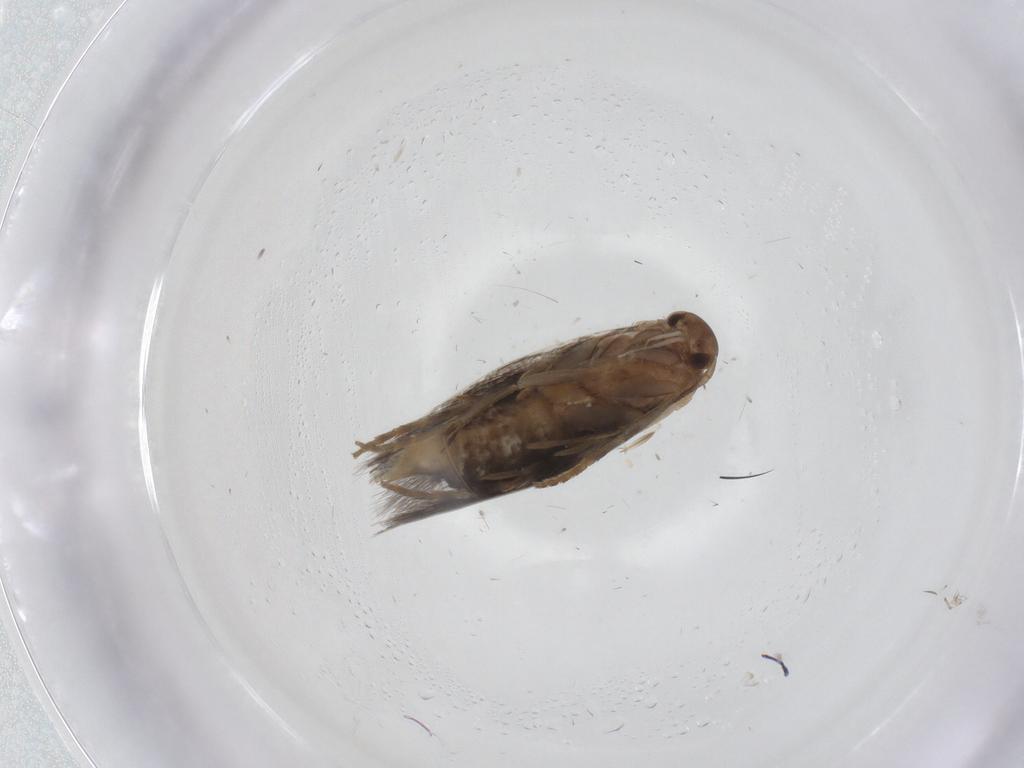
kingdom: Animalia
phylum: Arthropoda
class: Insecta
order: Lepidoptera
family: Elachistidae
